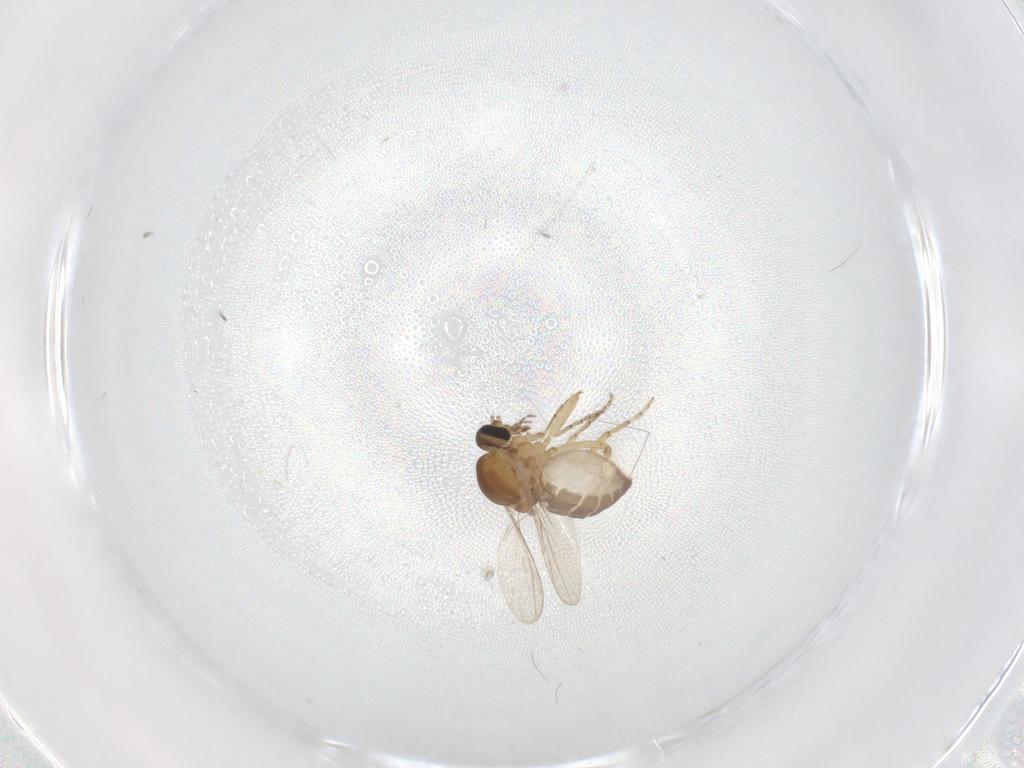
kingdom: Animalia
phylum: Arthropoda
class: Insecta
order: Diptera
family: Ceratopogonidae
